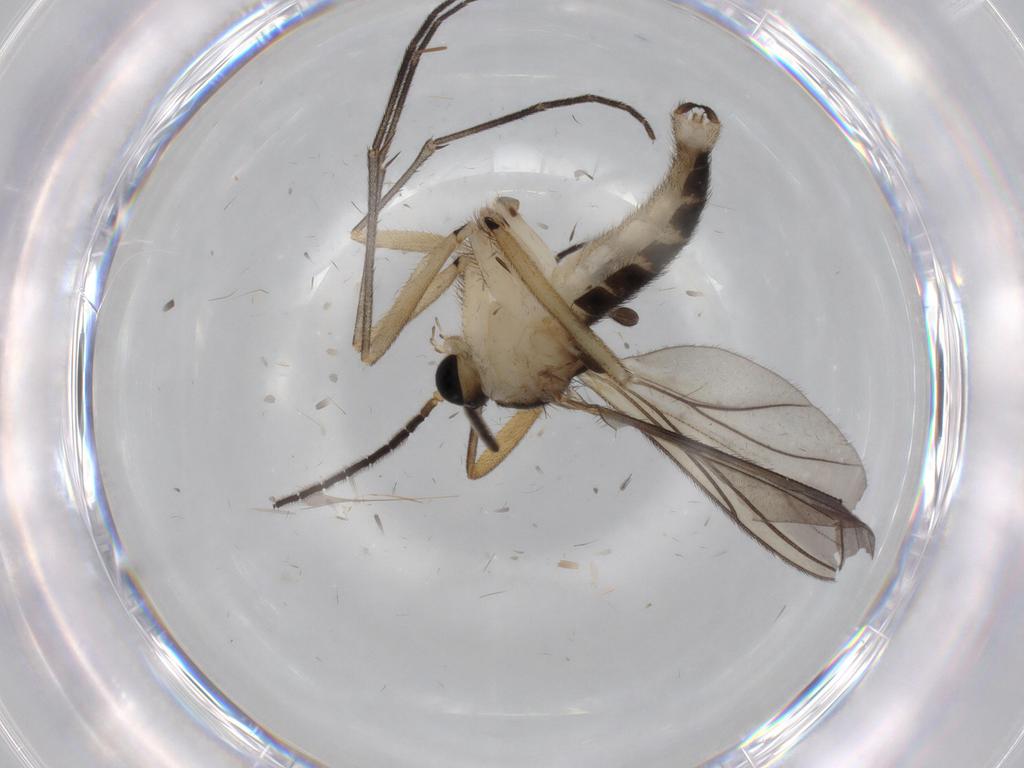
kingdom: Animalia
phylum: Arthropoda
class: Insecta
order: Diptera
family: Sciaridae
